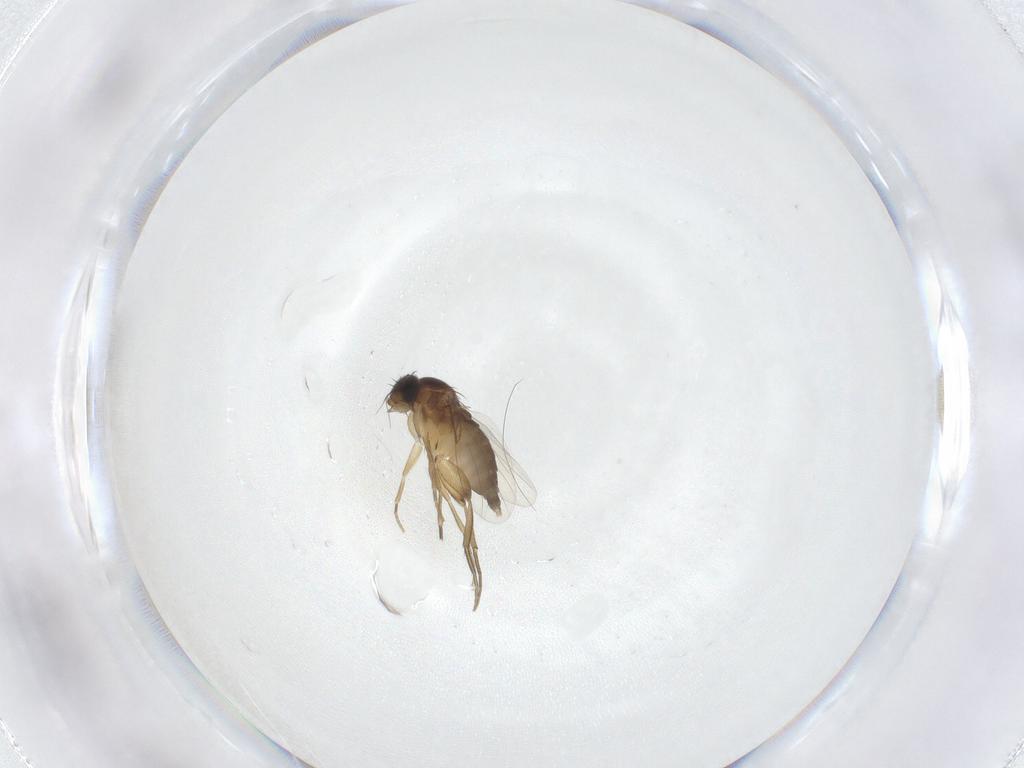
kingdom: Animalia
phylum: Arthropoda
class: Insecta
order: Diptera
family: Phoridae
